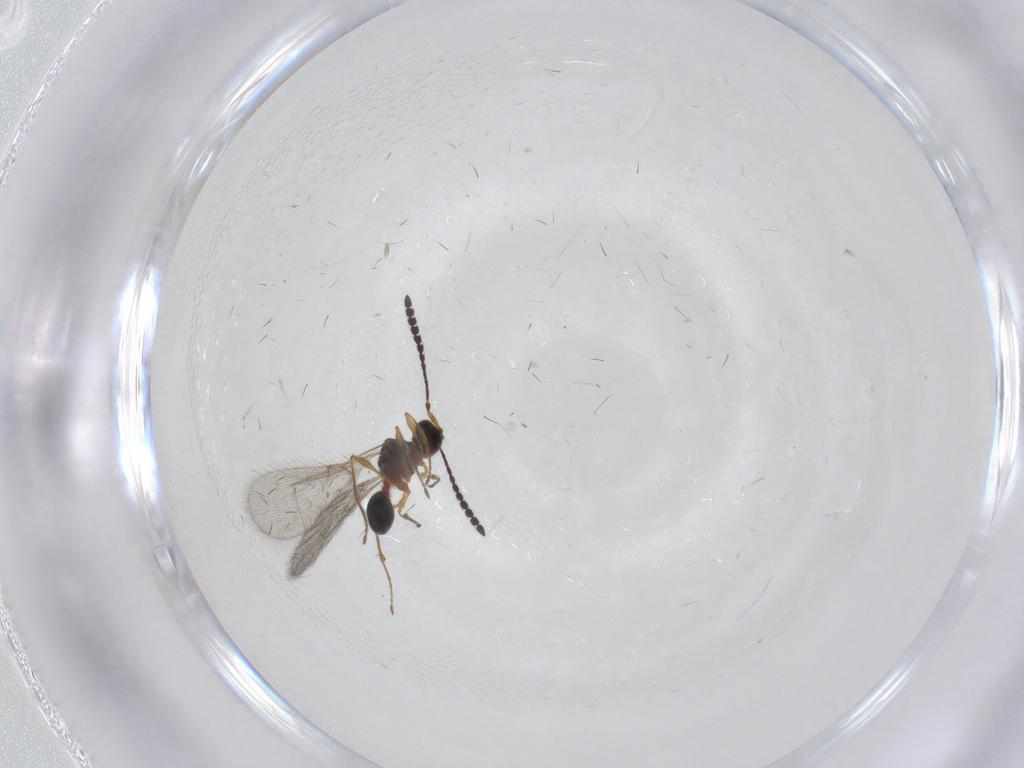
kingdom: Animalia
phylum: Arthropoda
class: Insecta
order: Hymenoptera
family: Diapriidae
